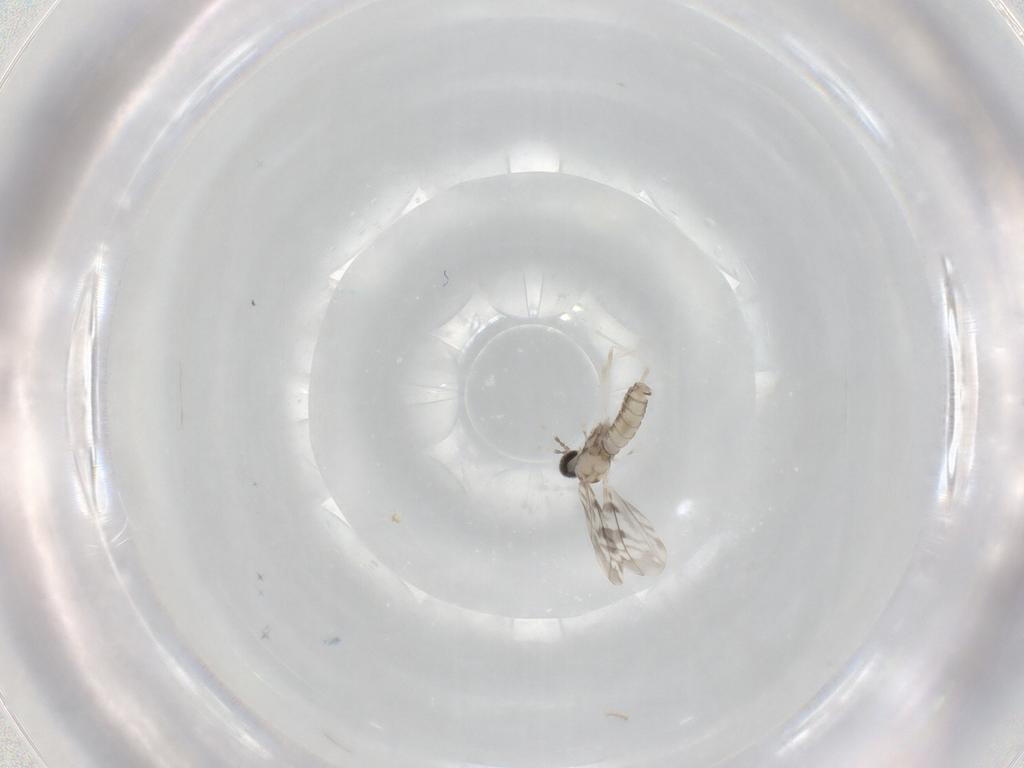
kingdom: Animalia
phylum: Arthropoda
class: Insecta
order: Diptera
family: Cecidomyiidae
